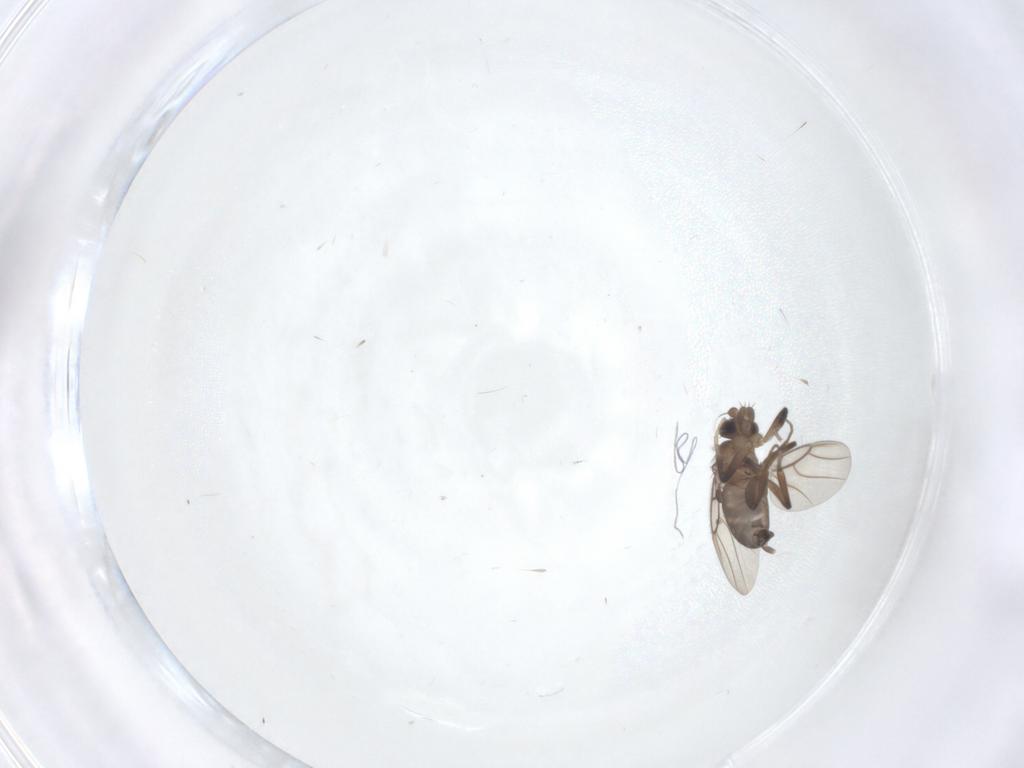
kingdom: Animalia
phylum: Arthropoda
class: Insecta
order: Diptera
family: Phoridae
